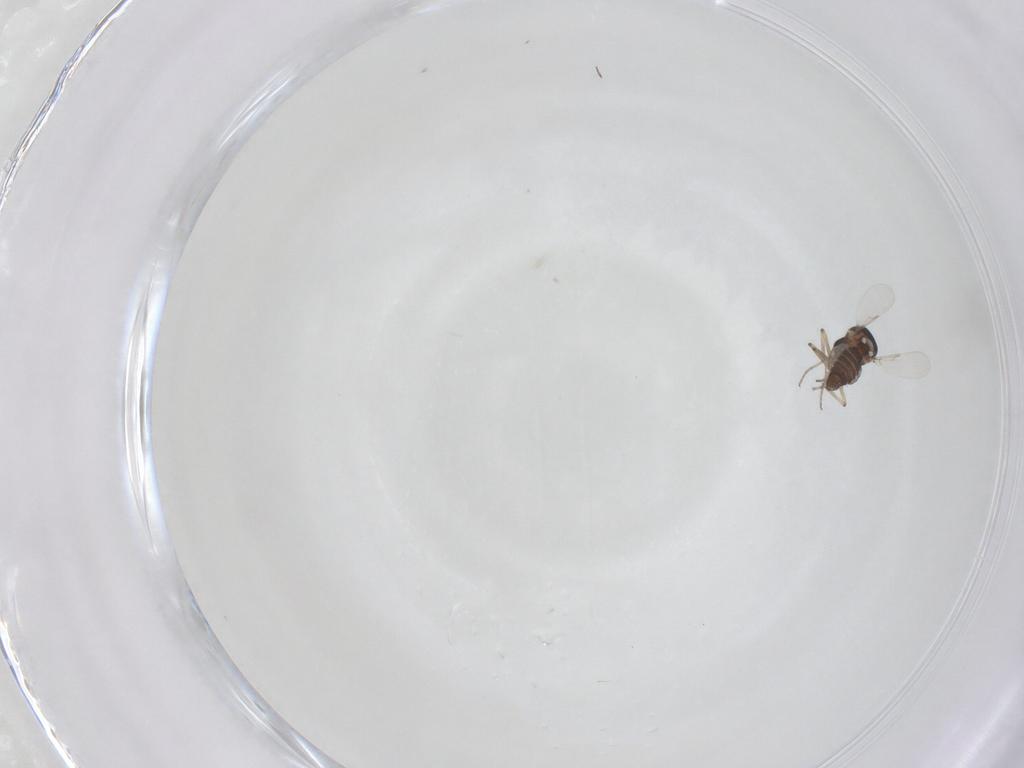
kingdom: Animalia
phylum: Arthropoda
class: Insecta
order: Diptera
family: Ceratopogonidae
